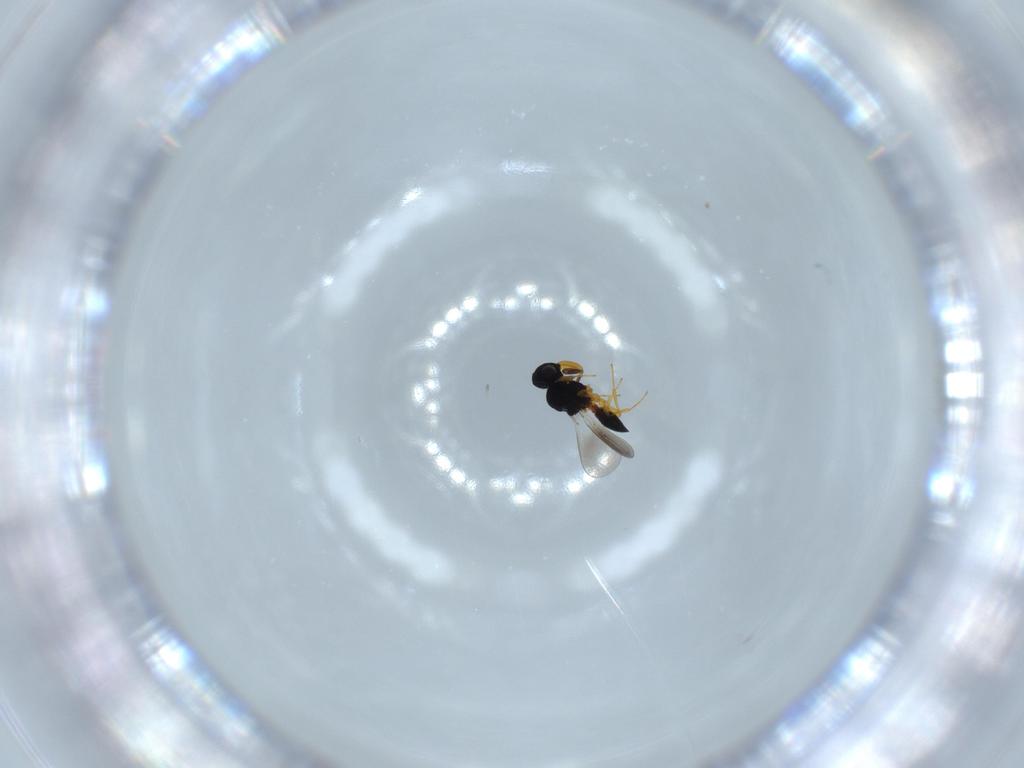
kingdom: Animalia
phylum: Arthropoda
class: Insecta
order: Hymenoptera
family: Platygastridae
